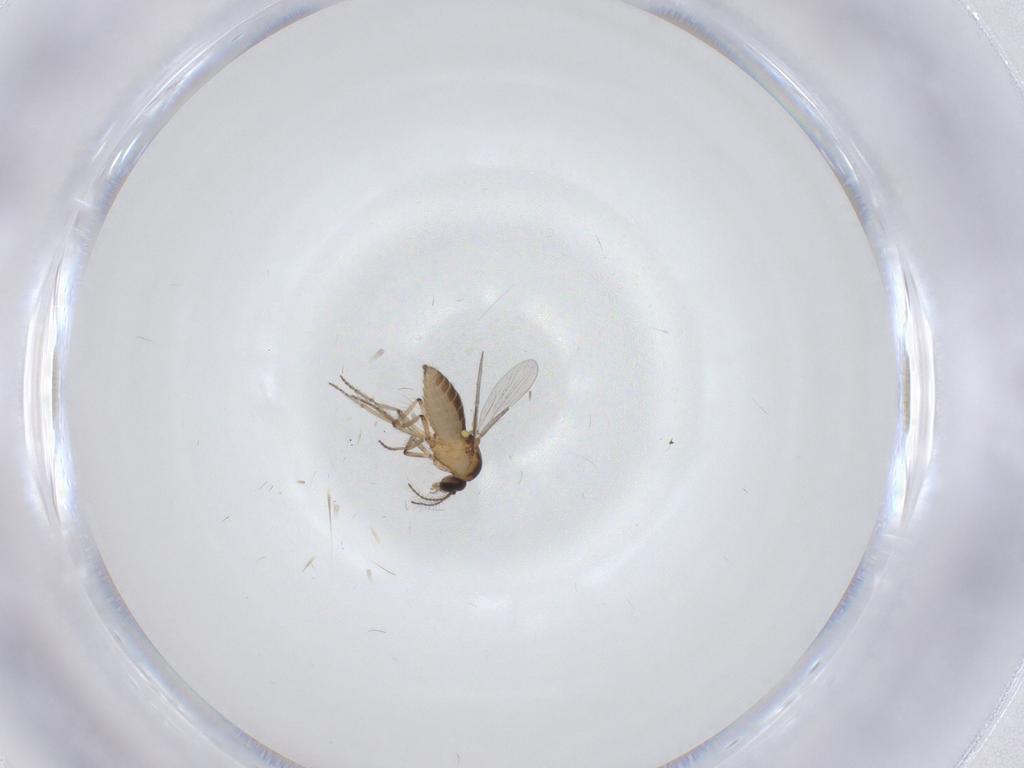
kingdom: Animalia
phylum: Arthropoda
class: Insecta
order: Diptera
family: Ceratopogonidae
